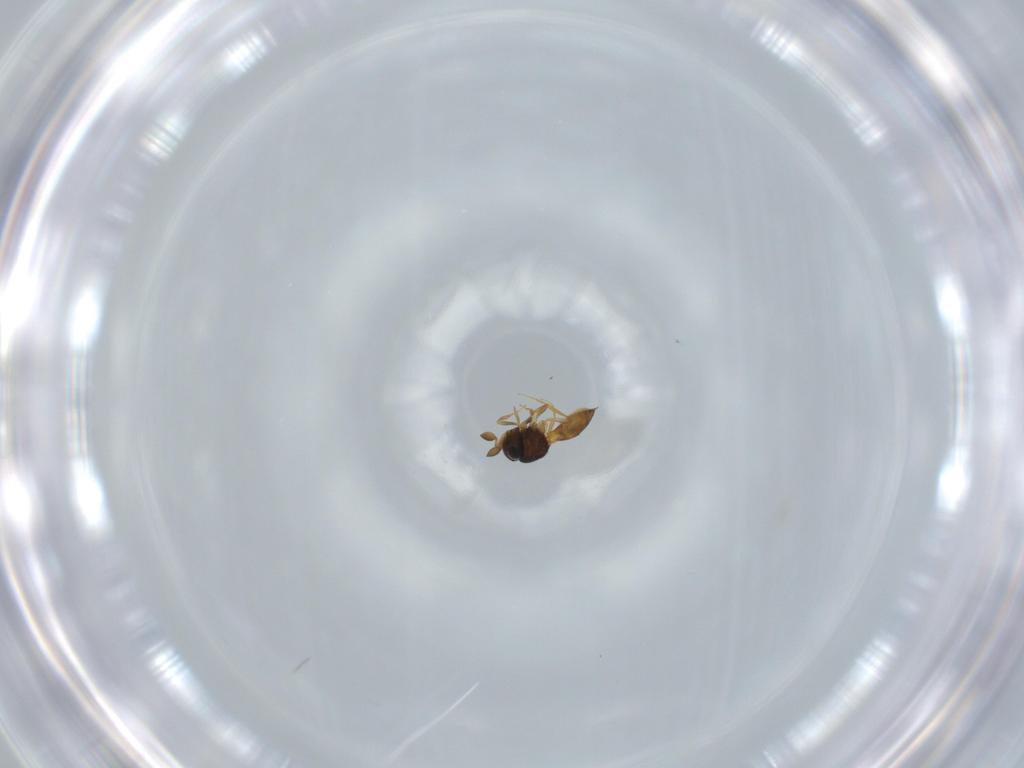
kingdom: Animalia
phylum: Arthropoda
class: Insecta
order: Hymenoptera
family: Scelionidae
